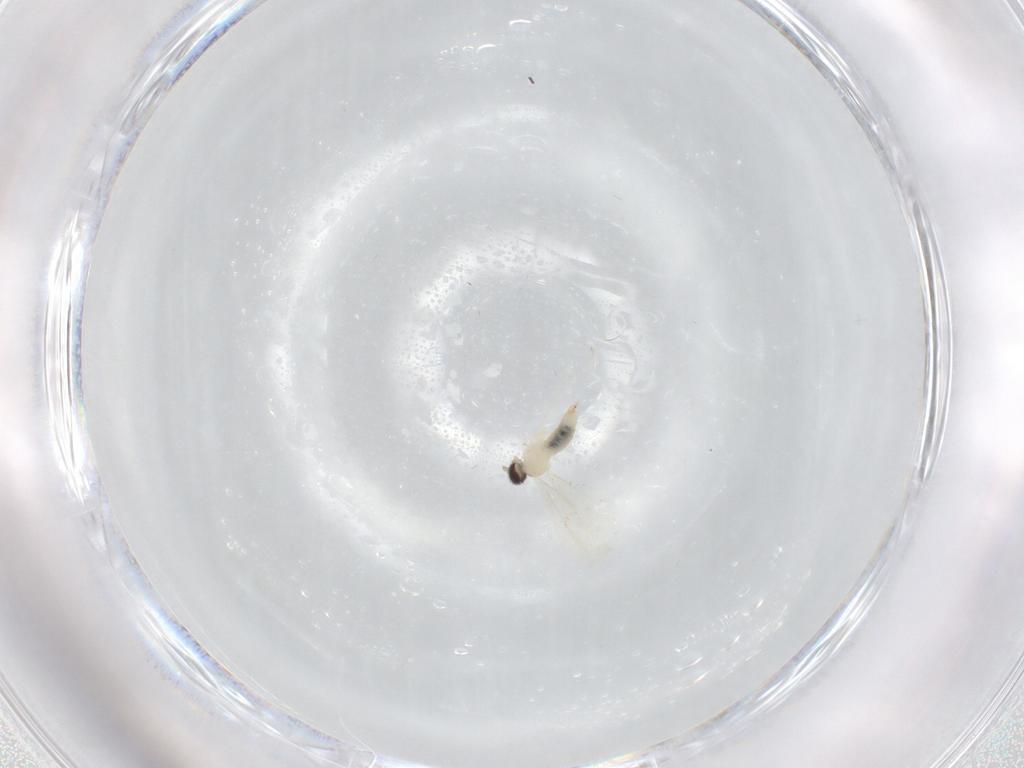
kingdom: Animalia
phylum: Arthropoda
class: Insecta
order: Diptera
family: Cecidomyiidae
